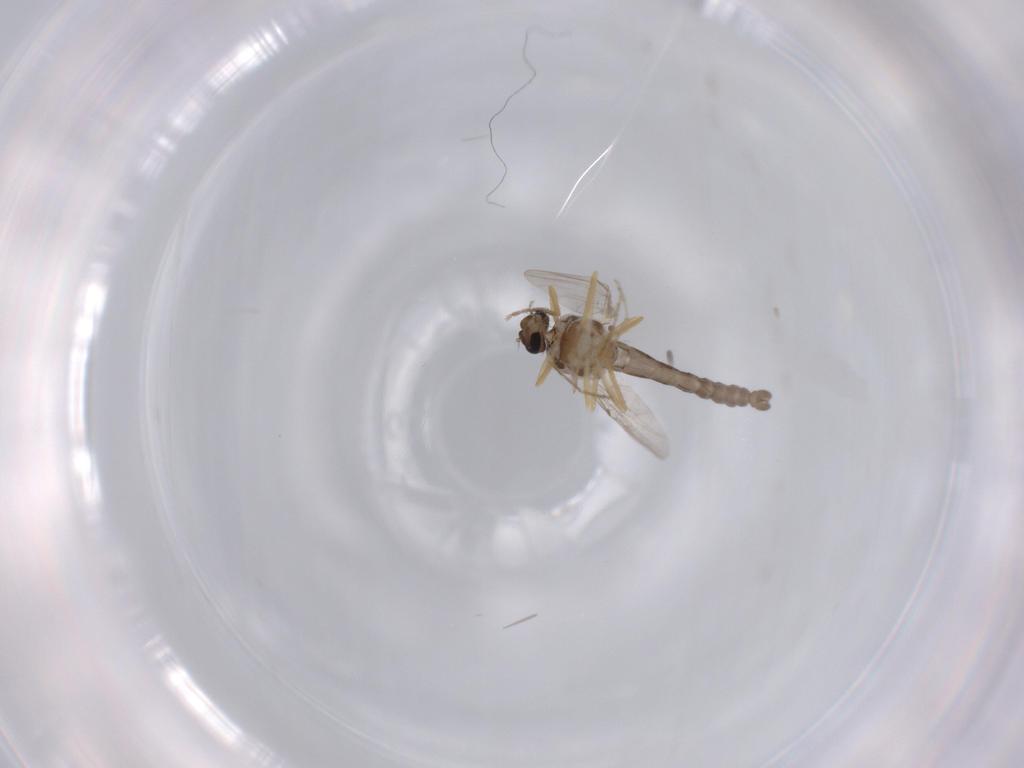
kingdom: Animalia
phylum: Arthropoda
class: Insecta
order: Diptera
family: Ceratopogonidae
